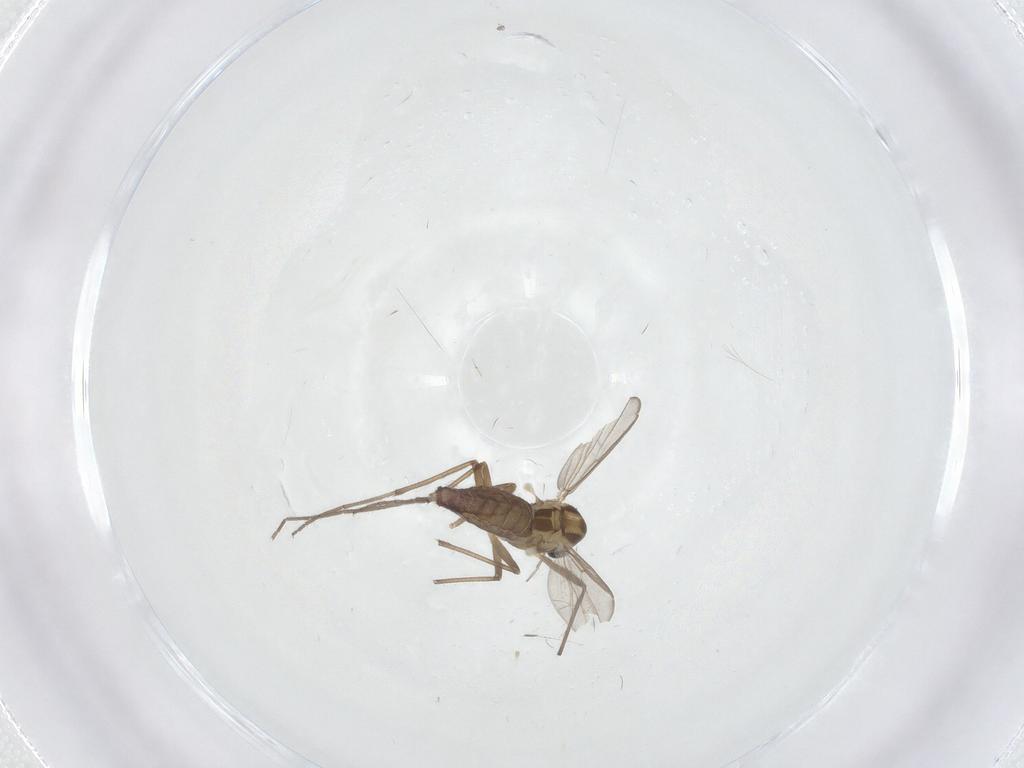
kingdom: Animalia
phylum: Arthropoda
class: Insecta
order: Diptera
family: Chironomidae
